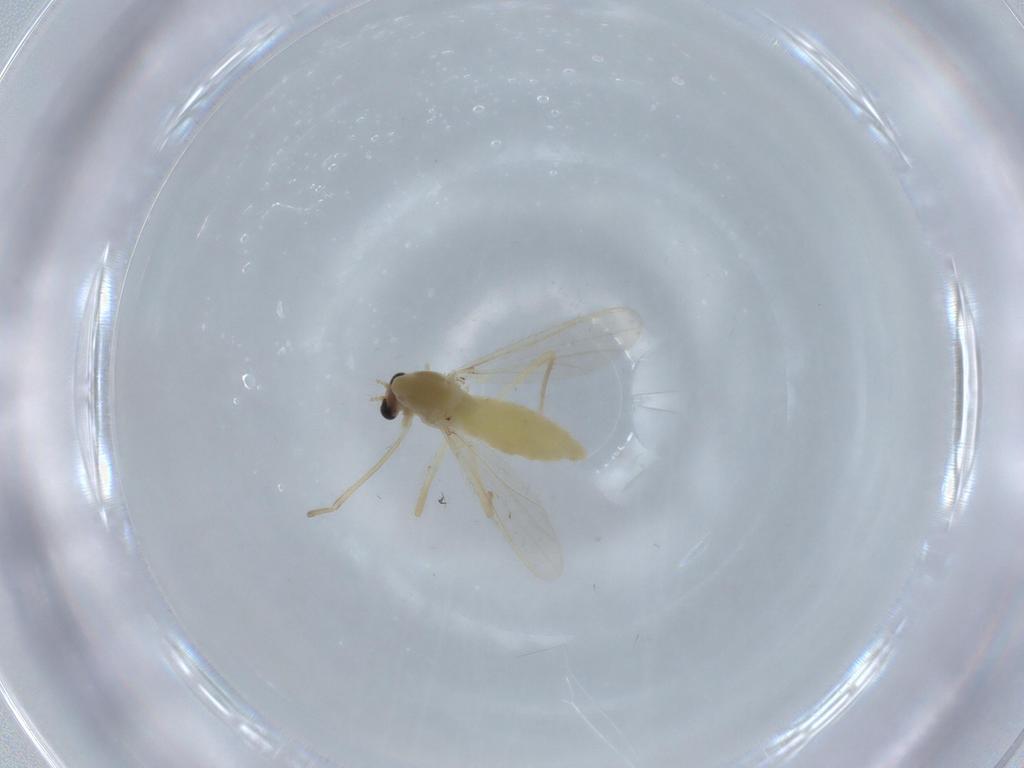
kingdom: Animalia
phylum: Arthropoda
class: Insecta
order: Diptera
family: Chironomidae
